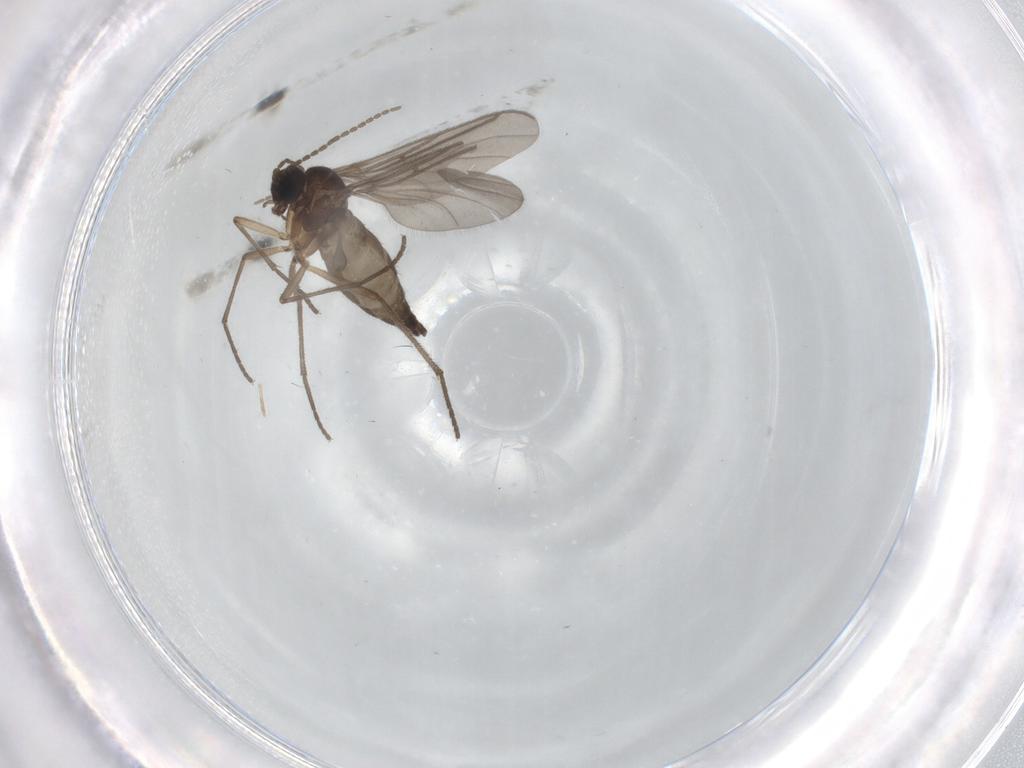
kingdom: Animalia
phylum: Arthropoda
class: Insecta
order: Diptera
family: Sciaridae
